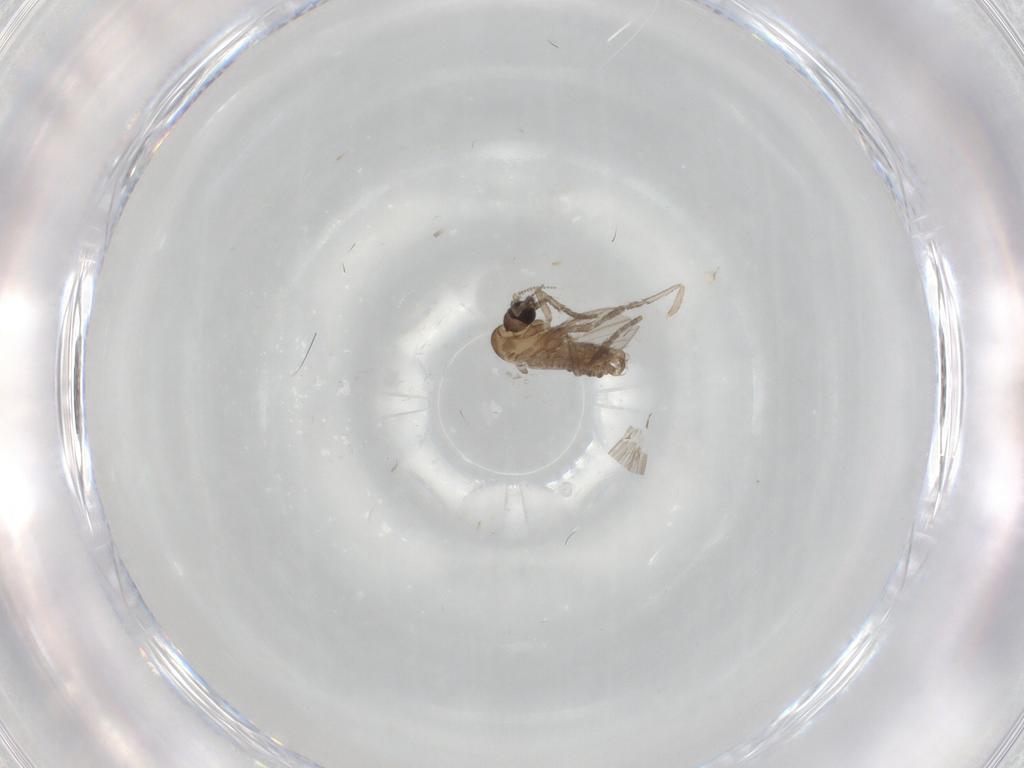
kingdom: Animalia
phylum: Arthropoda
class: Insecta
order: Diptera
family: Psychodidae
